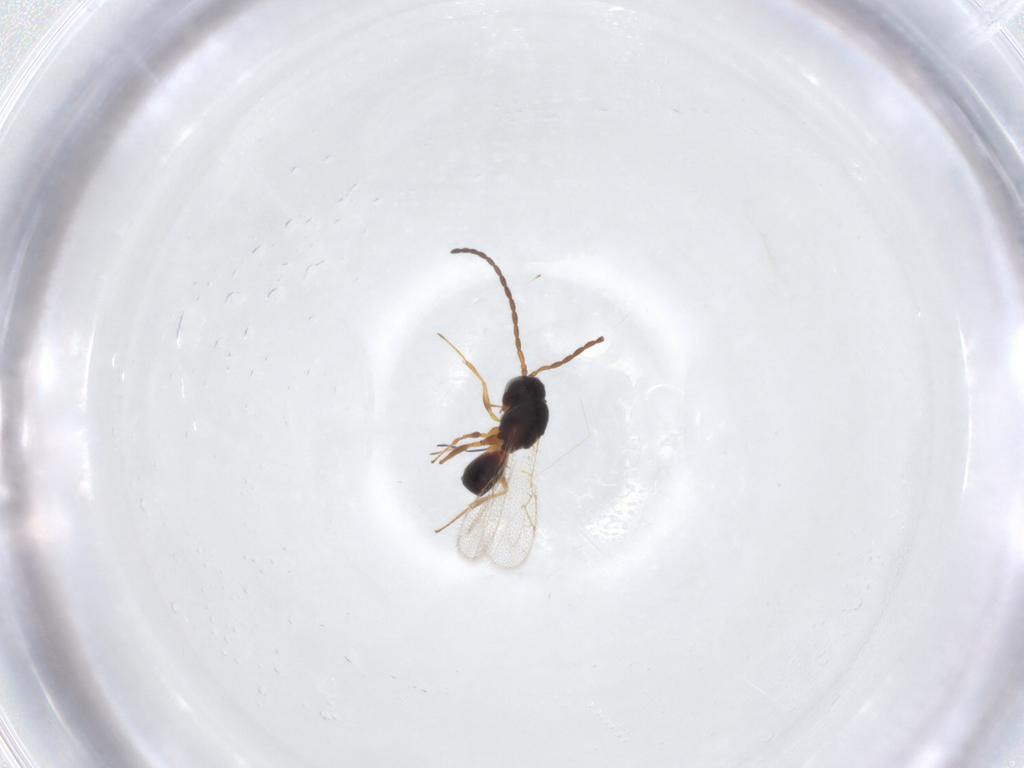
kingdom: Animalia
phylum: Arthropoda
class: Insecta
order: Hymenoptera
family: Figitidae
